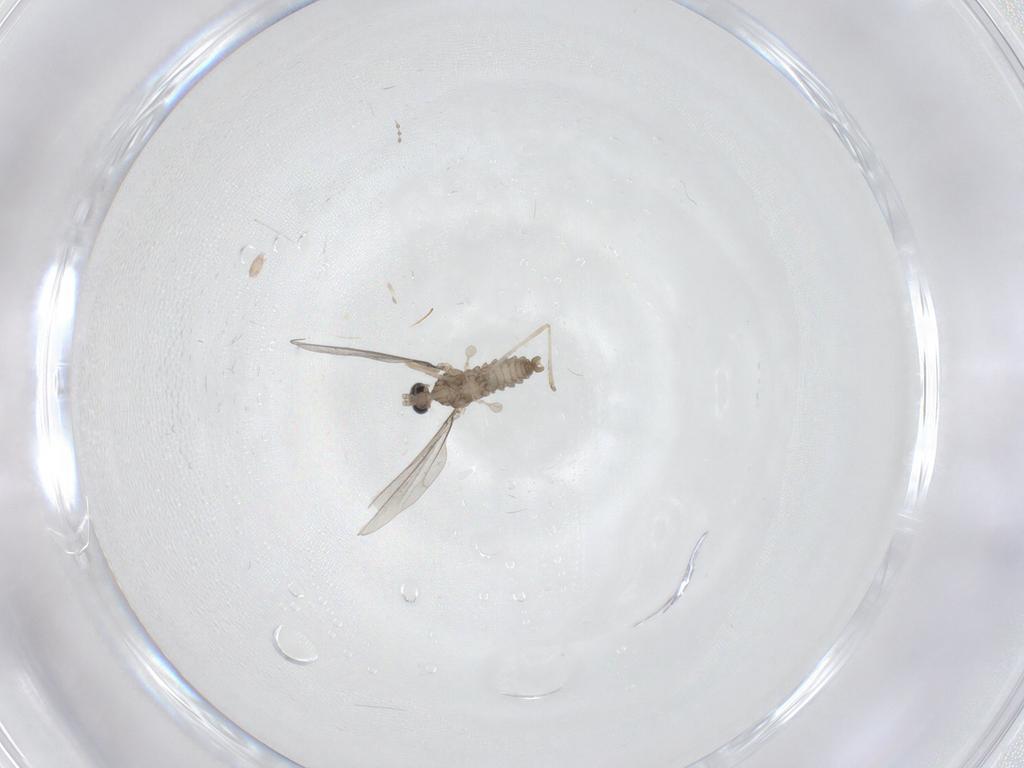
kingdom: Animalia
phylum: Arthropoda
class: Insecta
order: Diptera
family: Cecidomyiidae
